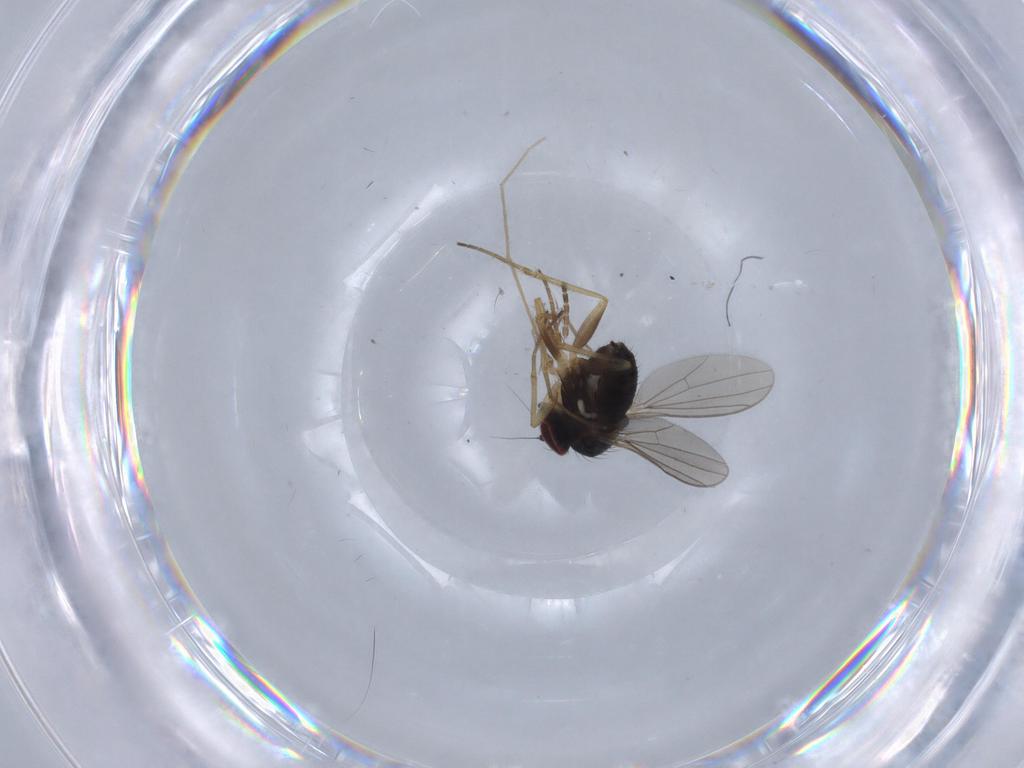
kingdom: Animalia
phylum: Arthropoda
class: Insecta
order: Diptera
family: Dolichopodidae
